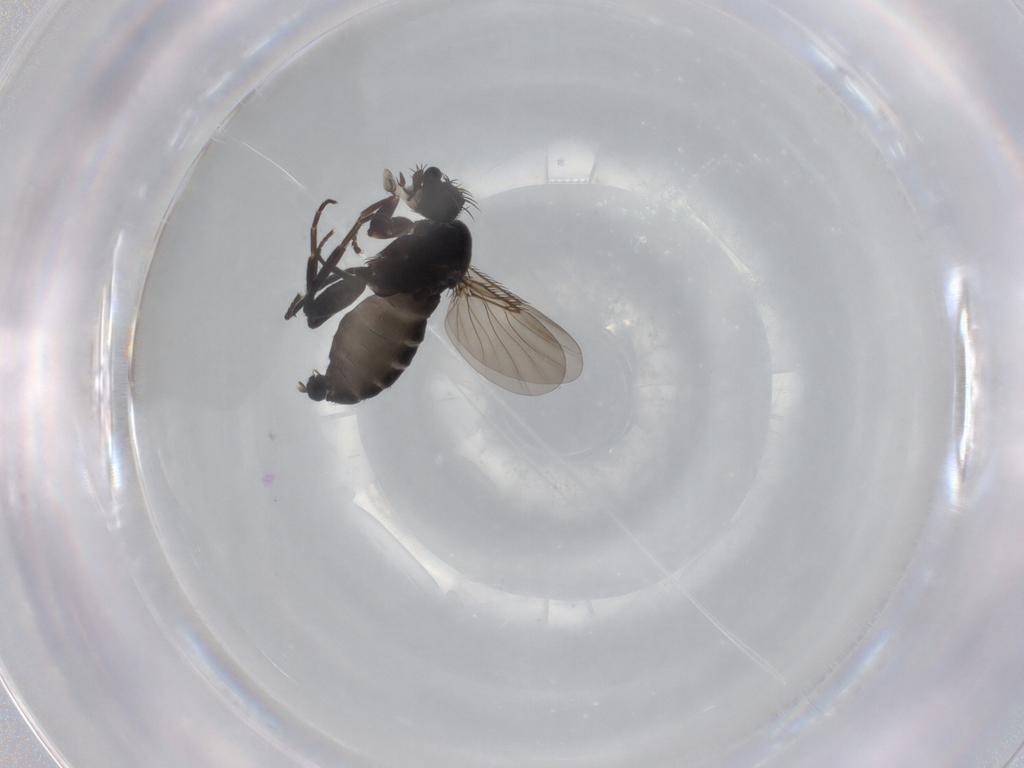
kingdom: Animalia
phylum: Arthropoda
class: Insecta
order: Diptera
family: Phoridae
